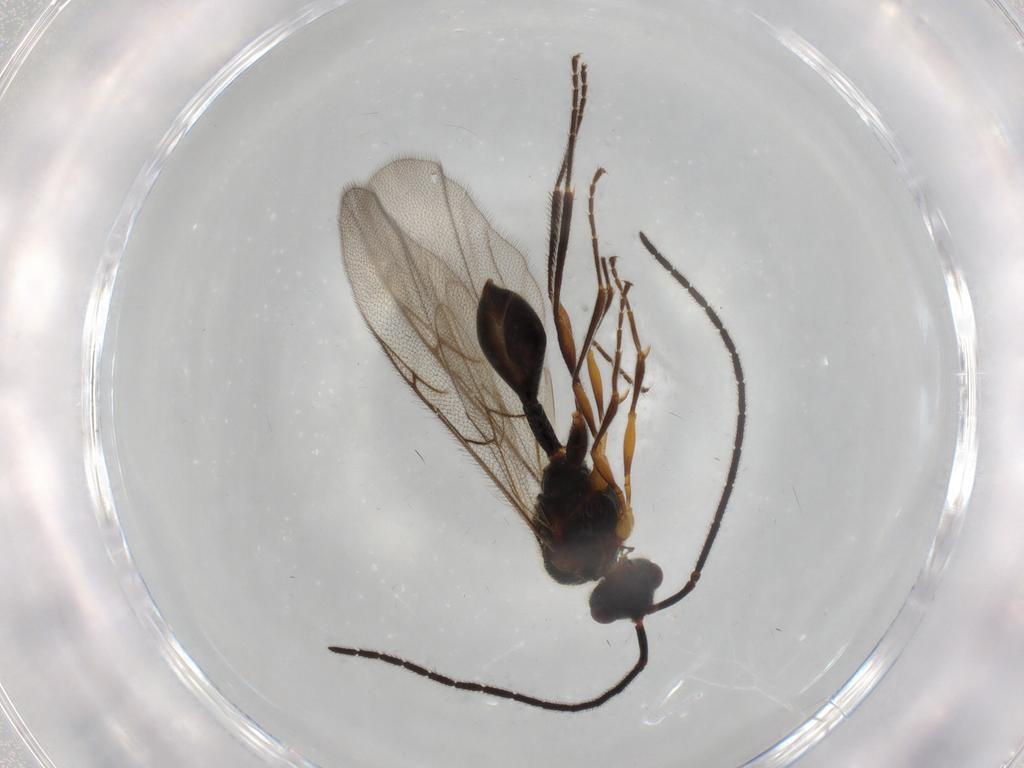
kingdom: Animalia
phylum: Arthropoda
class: Insecta
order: Hymenoptera
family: Diapriidae
